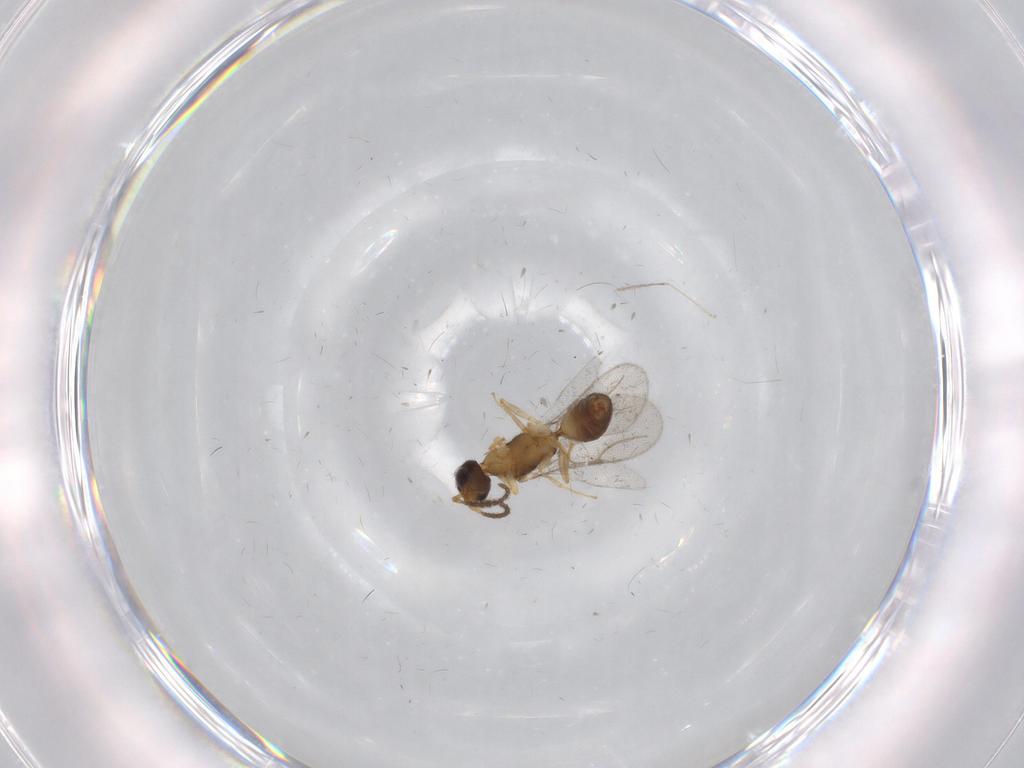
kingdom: Animalia
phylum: Arthropoda
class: Insecta
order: Hymenoptera
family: Bethylidae
